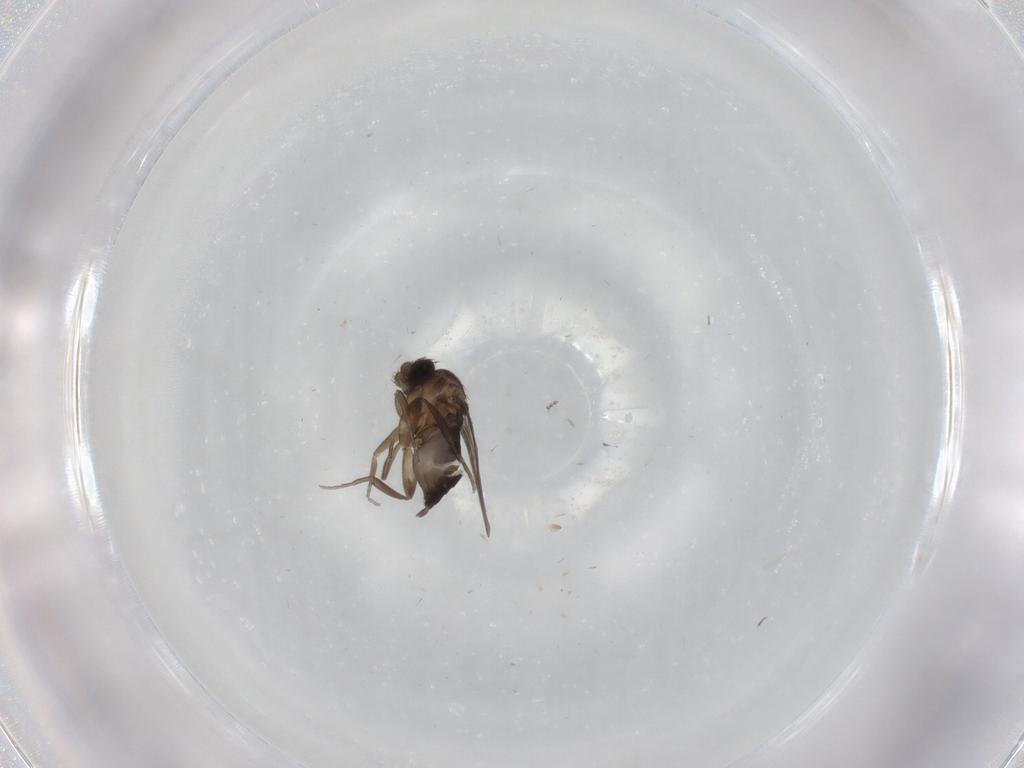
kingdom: Animalia
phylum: Arthropoda
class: Insecta
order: Diptera
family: Phoridae
